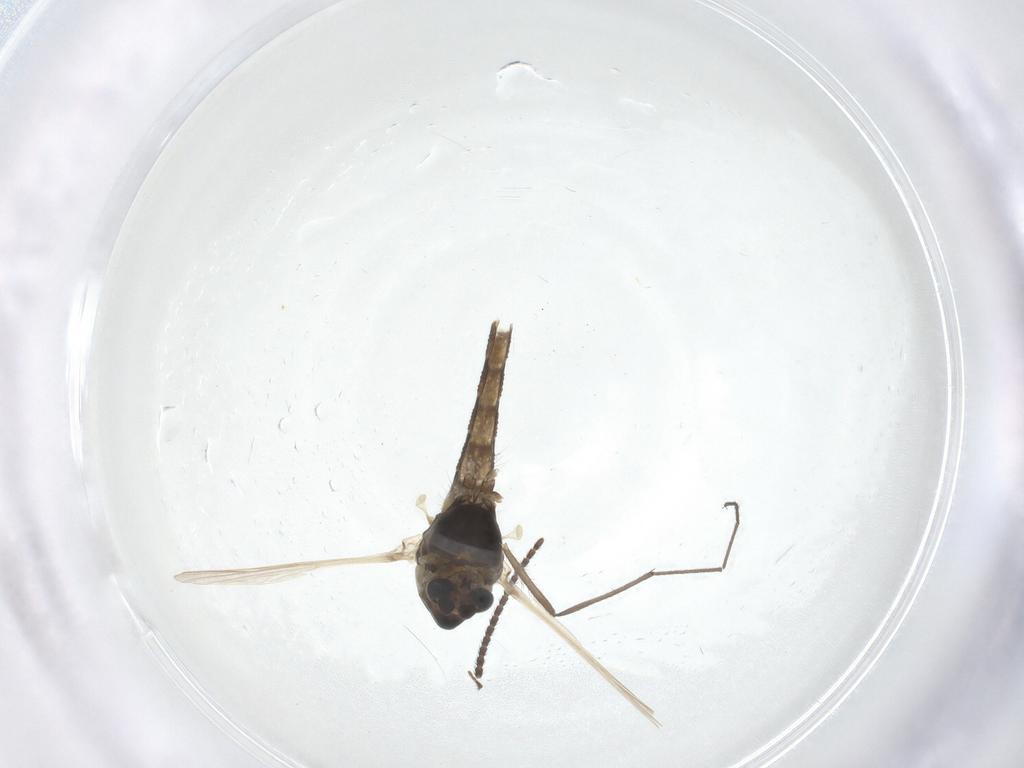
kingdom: Animalia
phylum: Arthropoda
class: Insecta
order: Diptera
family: Chironomidae
